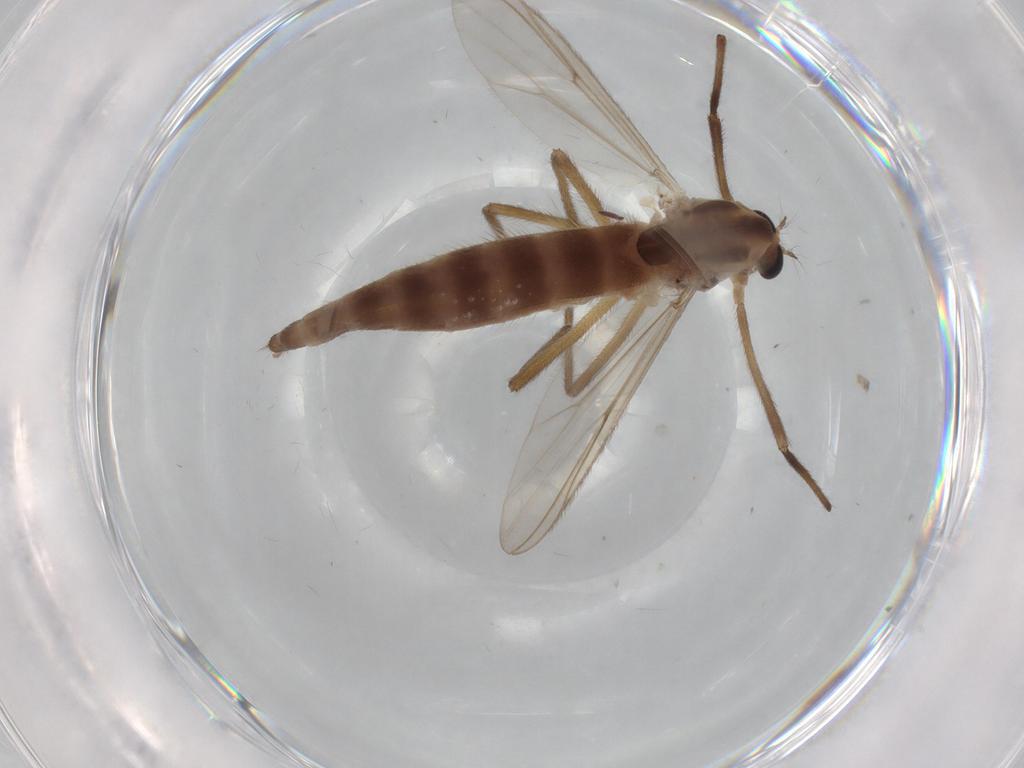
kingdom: Animalia
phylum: Arthropoda
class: Insecta
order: Diptera
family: Chironomidae
